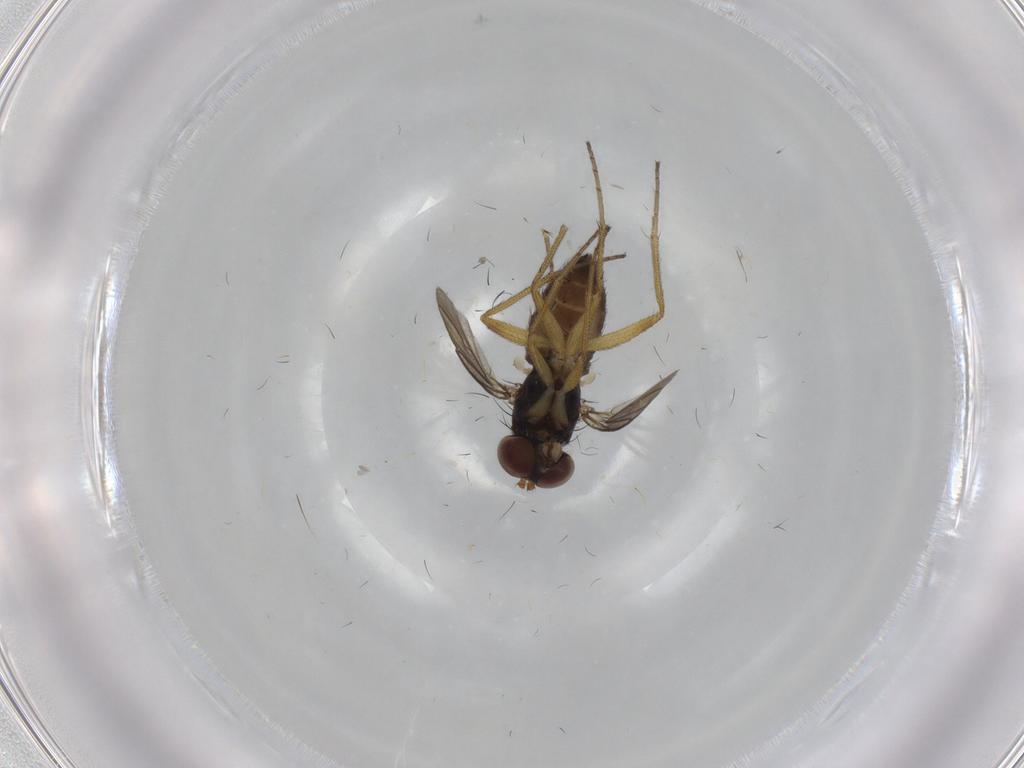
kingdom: Animalia
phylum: Arthropoda
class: Insecta
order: Diptera
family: Dolichopodidae
